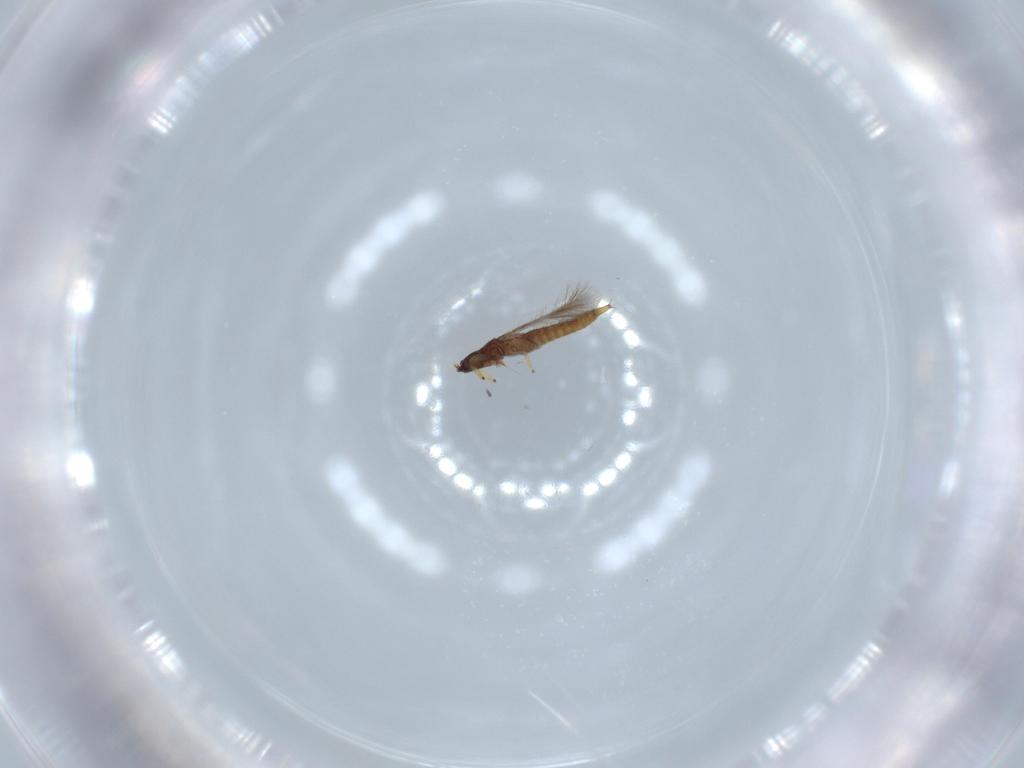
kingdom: Animalia
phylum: Arthropoda
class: Insecta
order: Thysanoptera
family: Phlaeothripidae
